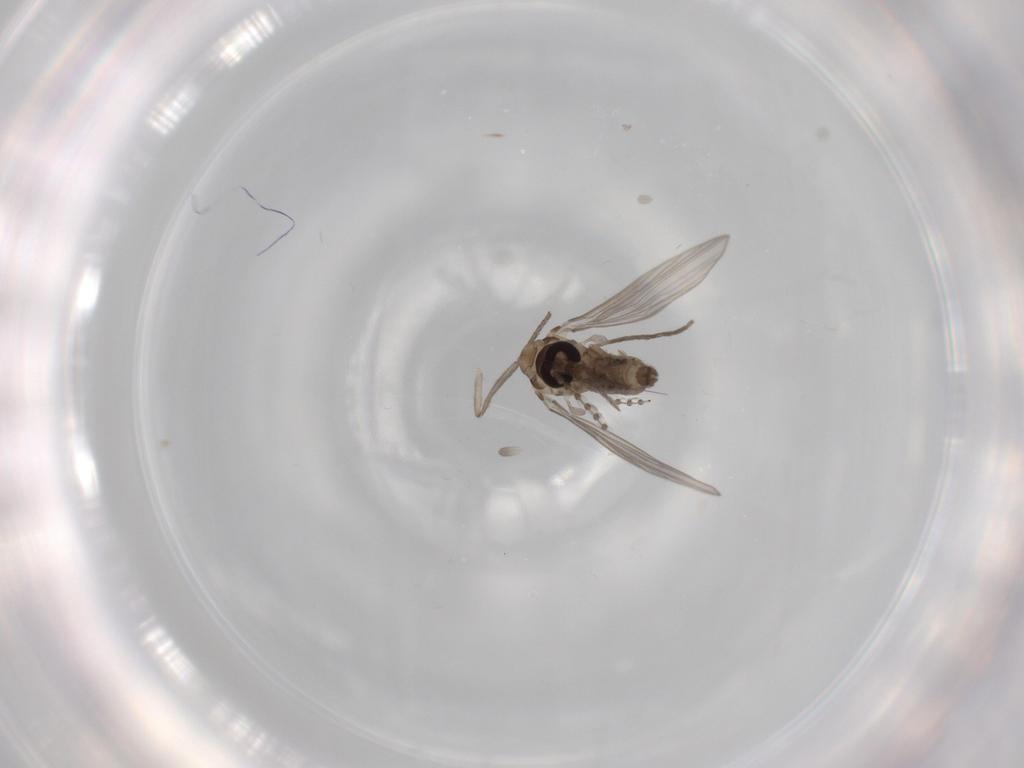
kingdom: Animalia
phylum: Arthropoda
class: Insecta
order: Diptera
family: Psychodidae
